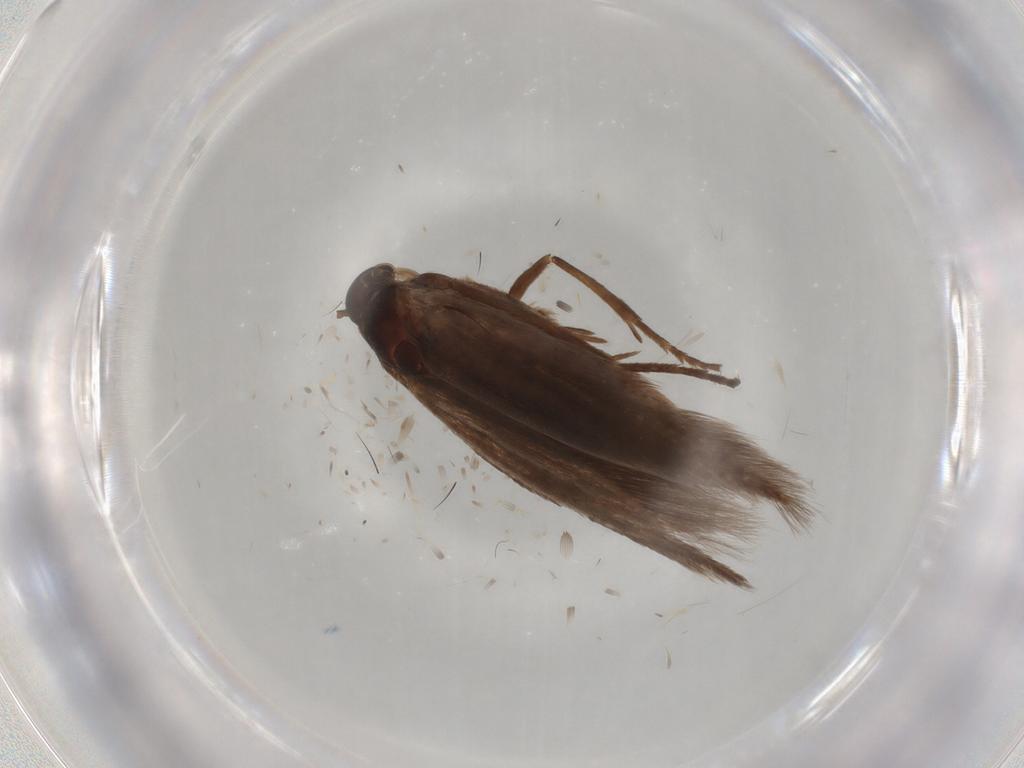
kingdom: Animalia
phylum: Arthropoda
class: Insecta
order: Lepidoptera
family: Scythrididae
